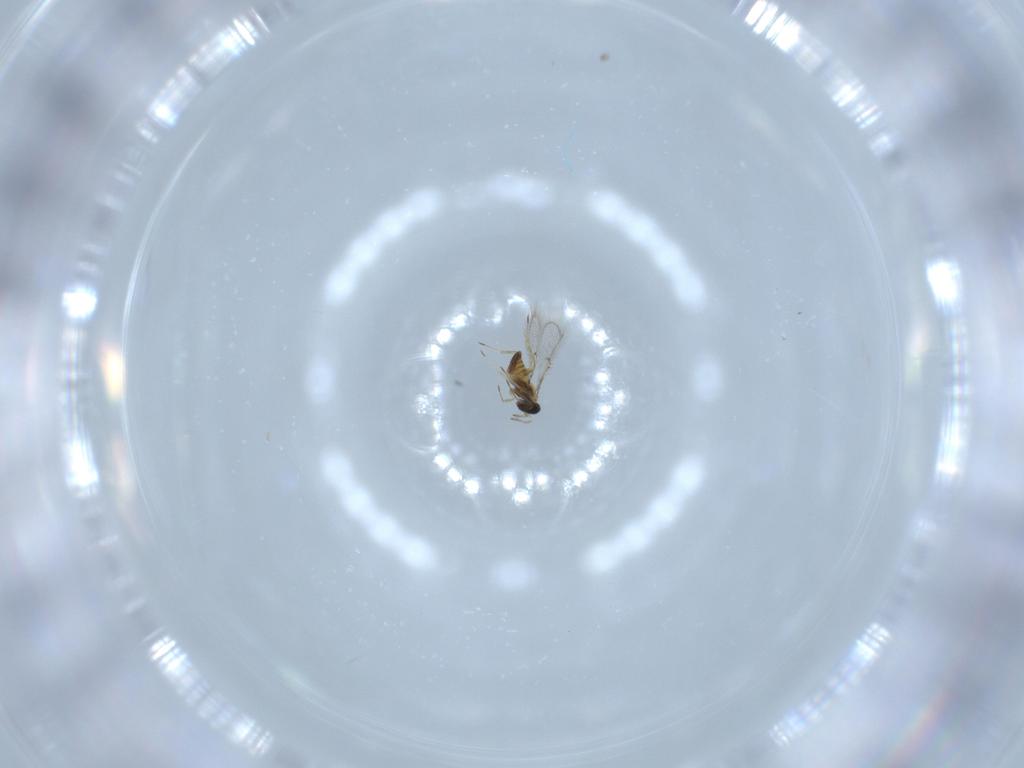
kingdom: Animalia
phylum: Arthropoda
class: Insecta
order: Hymenoptera
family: Trichogrammatidae
